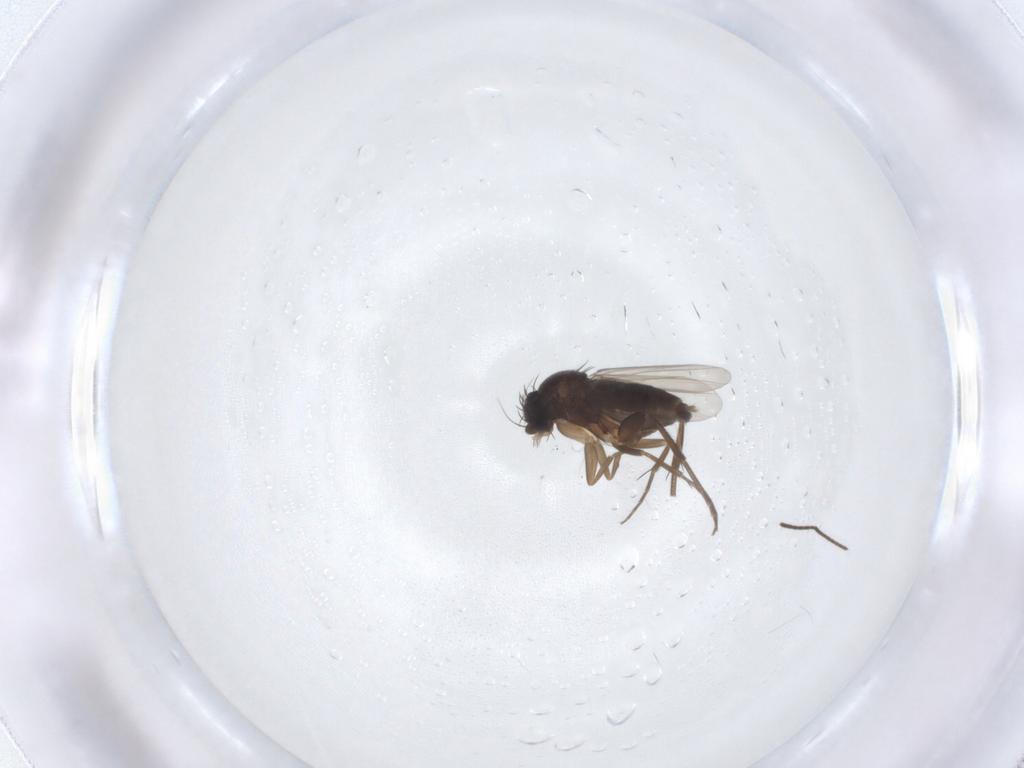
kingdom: Animalia
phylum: Arthropoda
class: Insecta
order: Diptera
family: Phoridae
